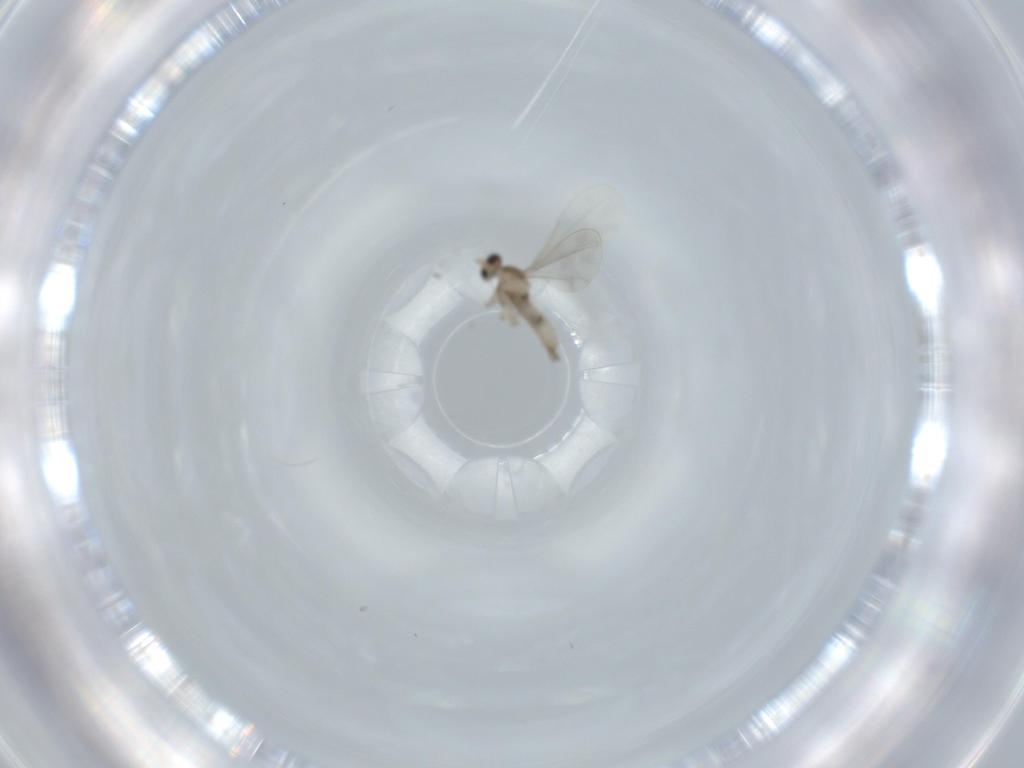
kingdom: Animalia
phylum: Arthropoda
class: Insecta
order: Diptera
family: Cecidomyiidae
